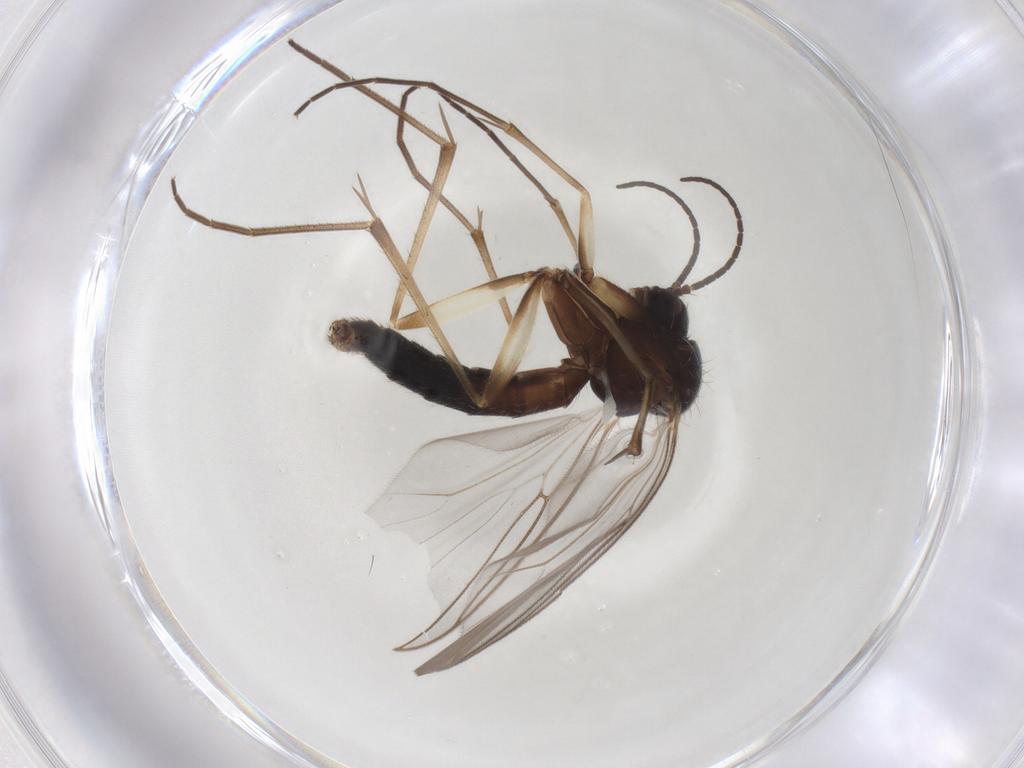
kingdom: Animalia
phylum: Arthropoda
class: Insecta
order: Diptera
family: Mycetophilidae
